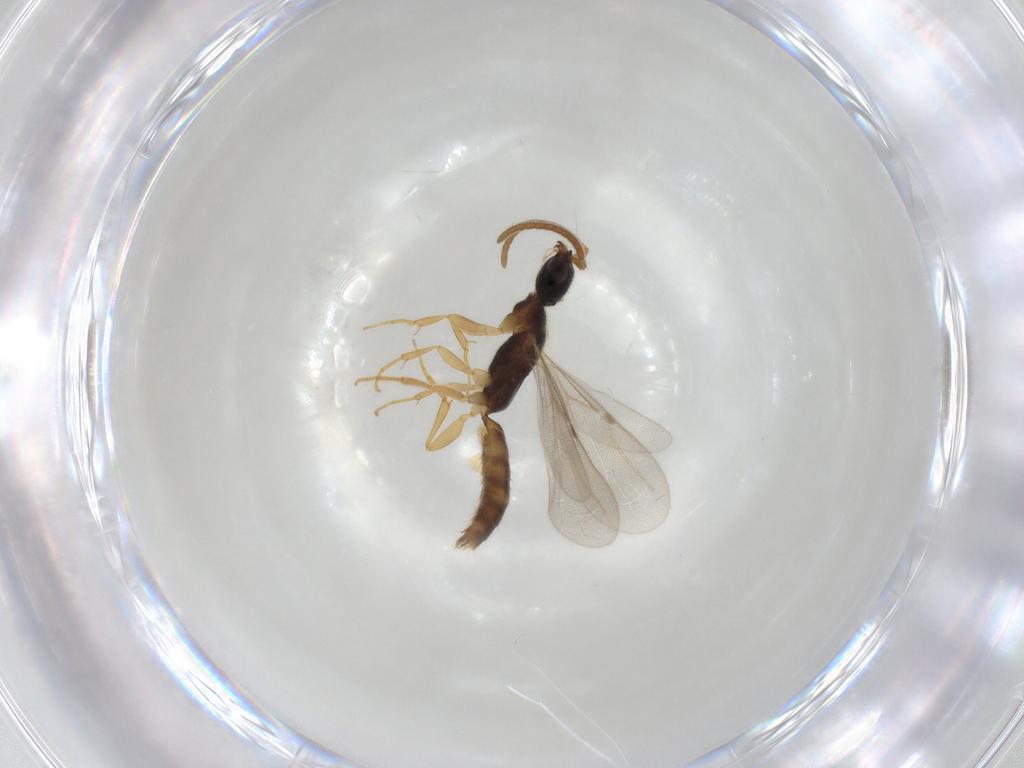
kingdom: Animalia
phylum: Arthropoda
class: Insecta
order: Hymenoptera
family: Bethylidae
